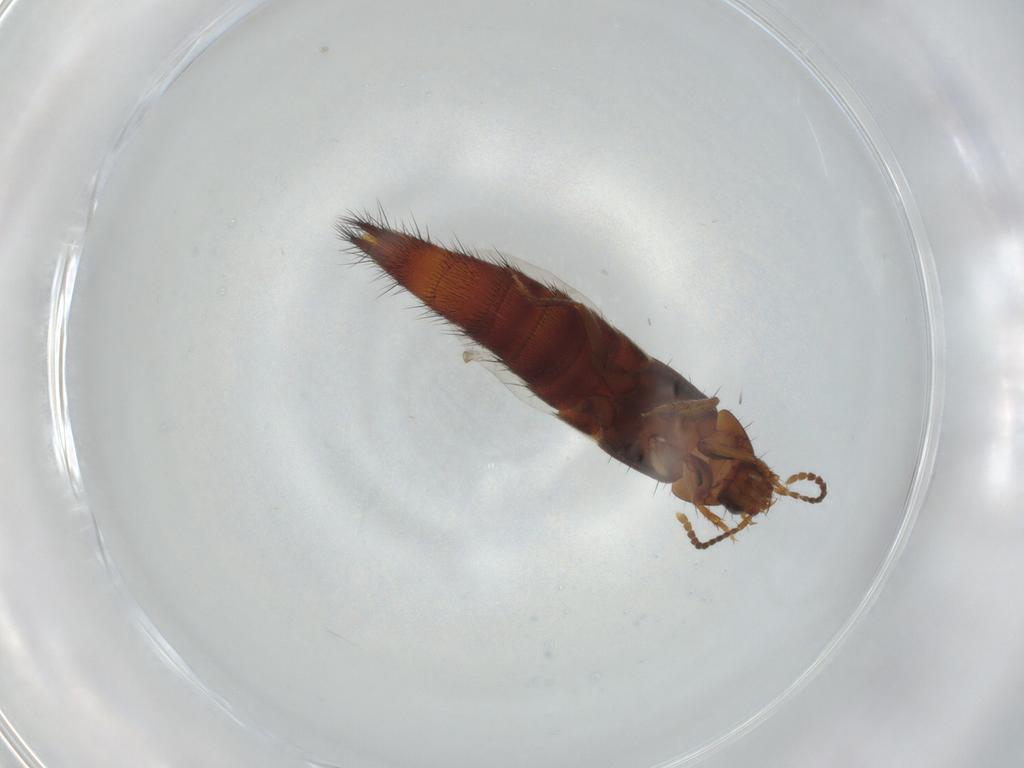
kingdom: Animalia
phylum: Arthropoda
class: Insecta
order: Coleoptera
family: Staphylinidae
